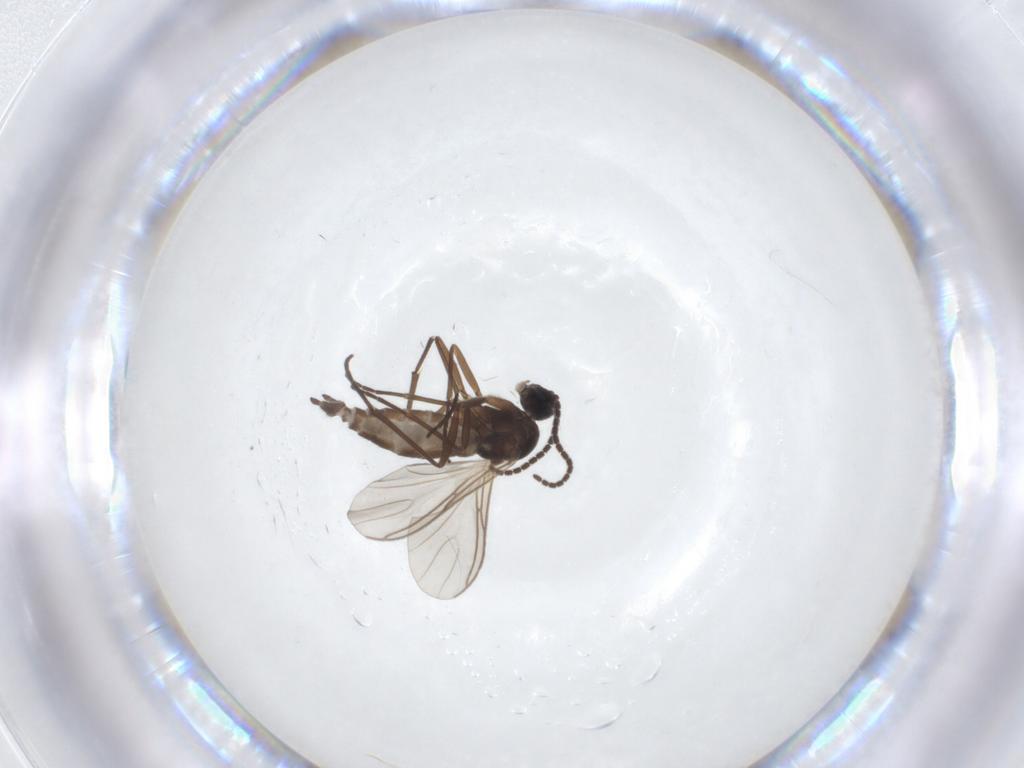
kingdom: Animalia
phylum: Arthropoda
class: Insecta
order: Diptera
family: Sciaridae
